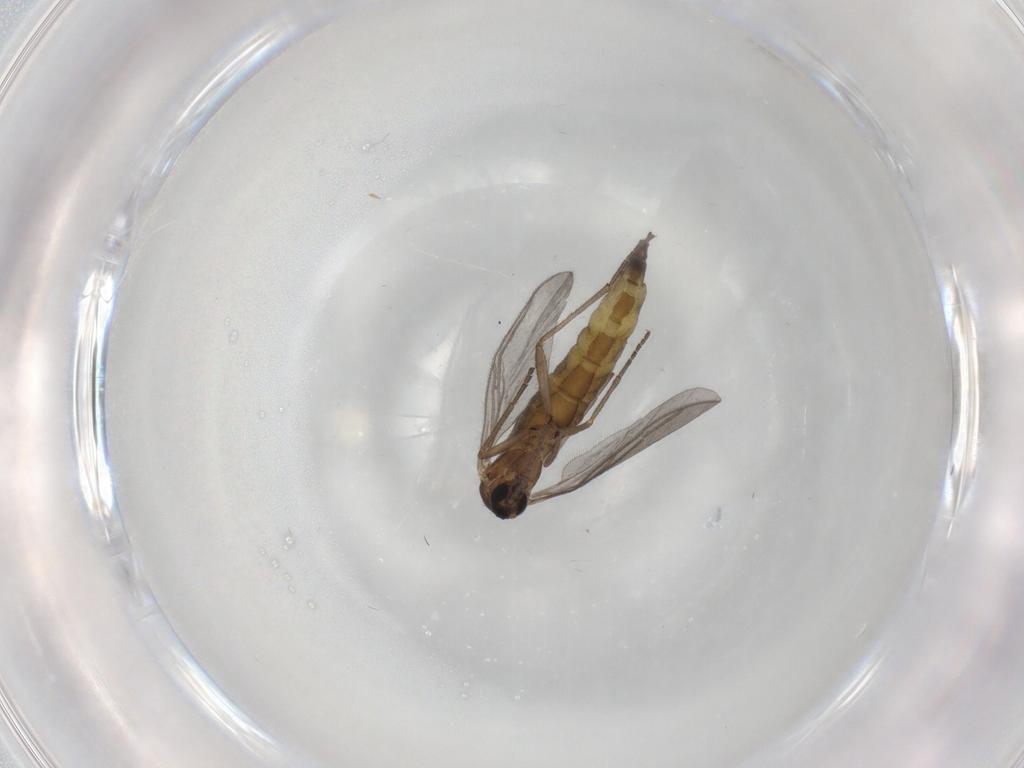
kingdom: Animalia
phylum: Arthropoda
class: Insecta
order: Diptera
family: Sciaridae
